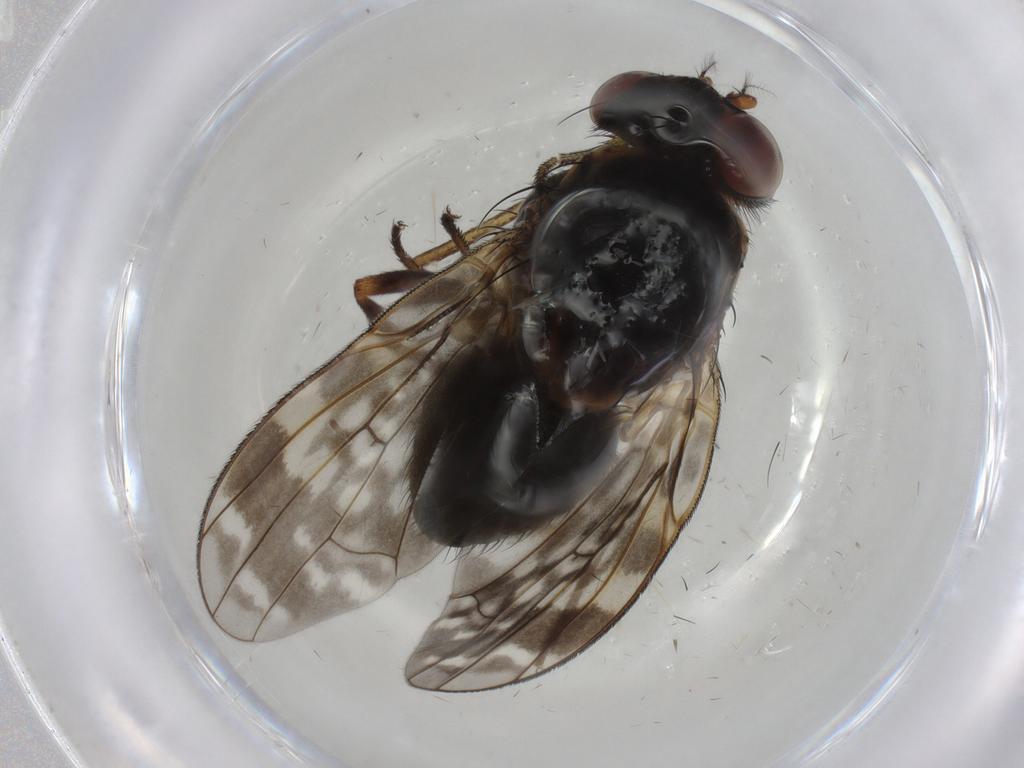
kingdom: Animalia
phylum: Arthropoda
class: Insecta
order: Diptera
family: Muscidae
